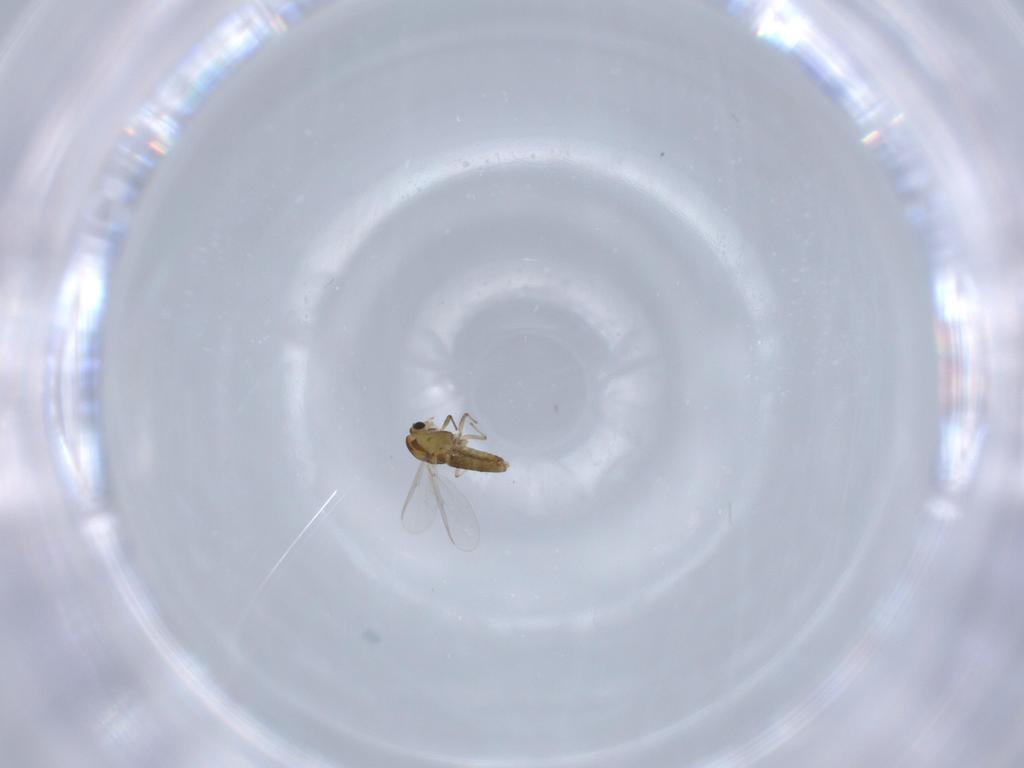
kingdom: Animalia
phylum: Arthropoda
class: Insecta
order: Diptera
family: Chironomidae
